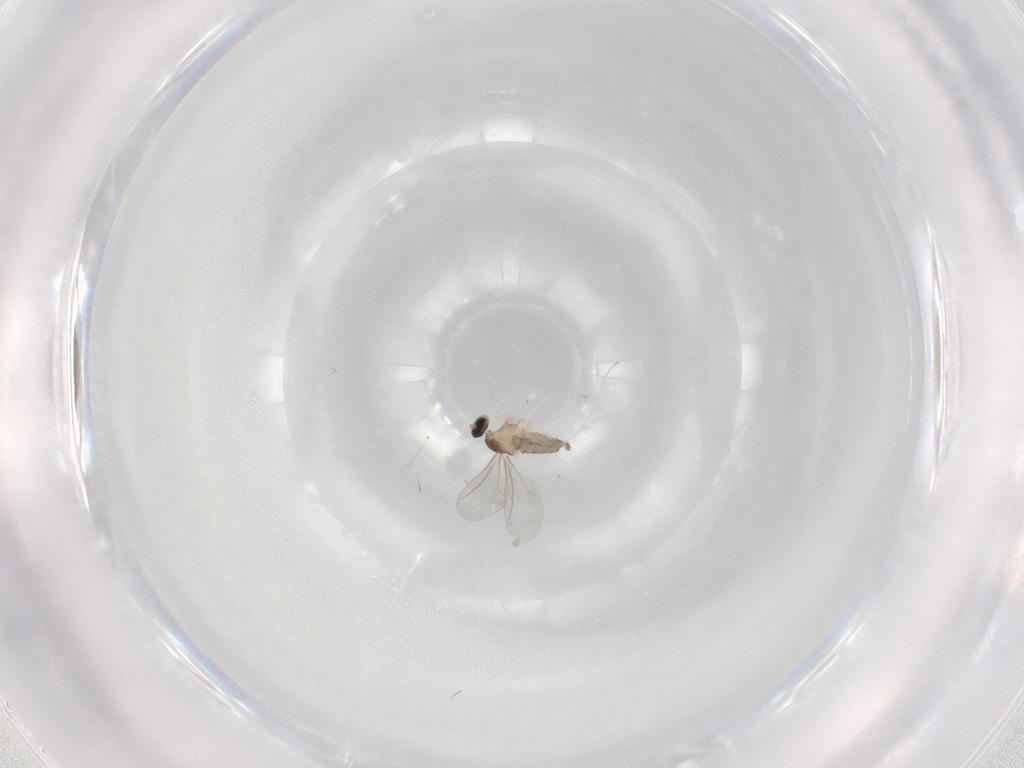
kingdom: Animalia
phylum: Arthropoda
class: Insecta
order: Diptera
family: Cecidomyiidae
